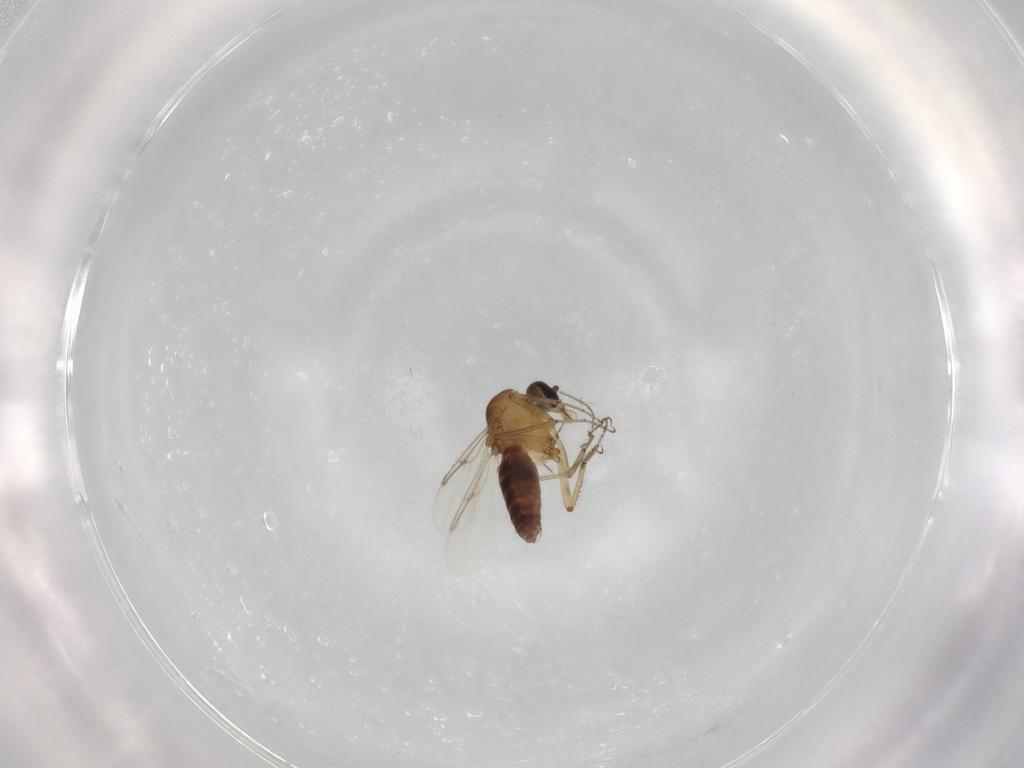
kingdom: Animalia
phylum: Arthropoda
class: Insecta
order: Diptera
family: Ceratopogonidae
